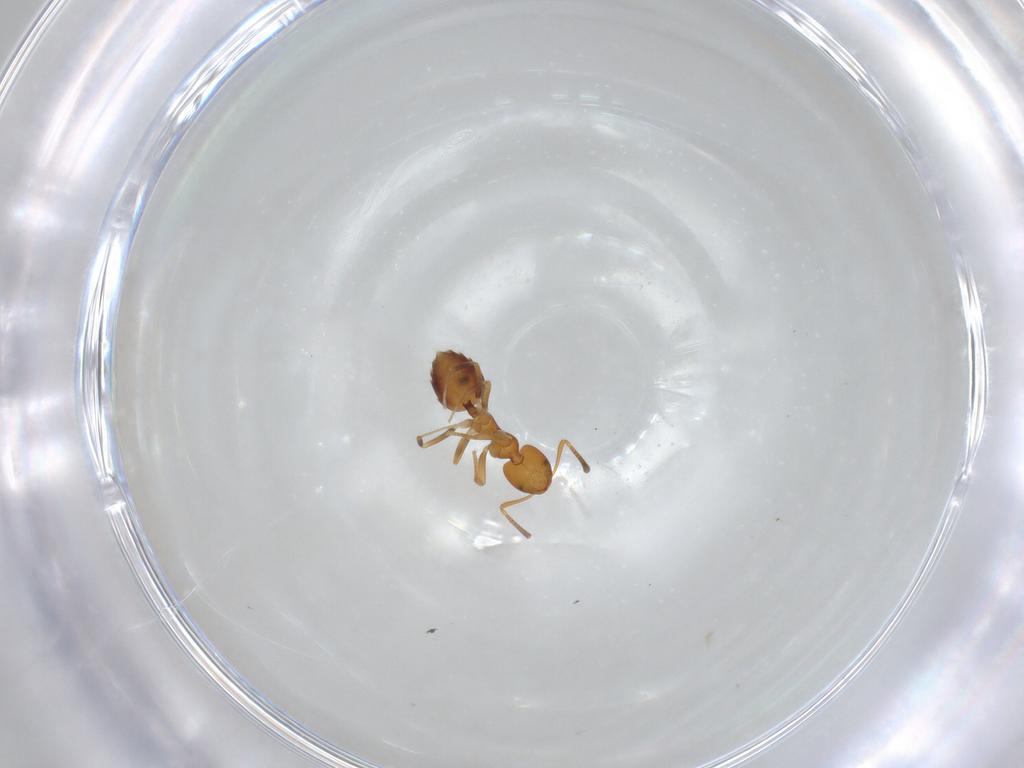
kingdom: Animalia
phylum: Arthropoda
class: Insecta
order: Hymenoptera
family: Formicidae
